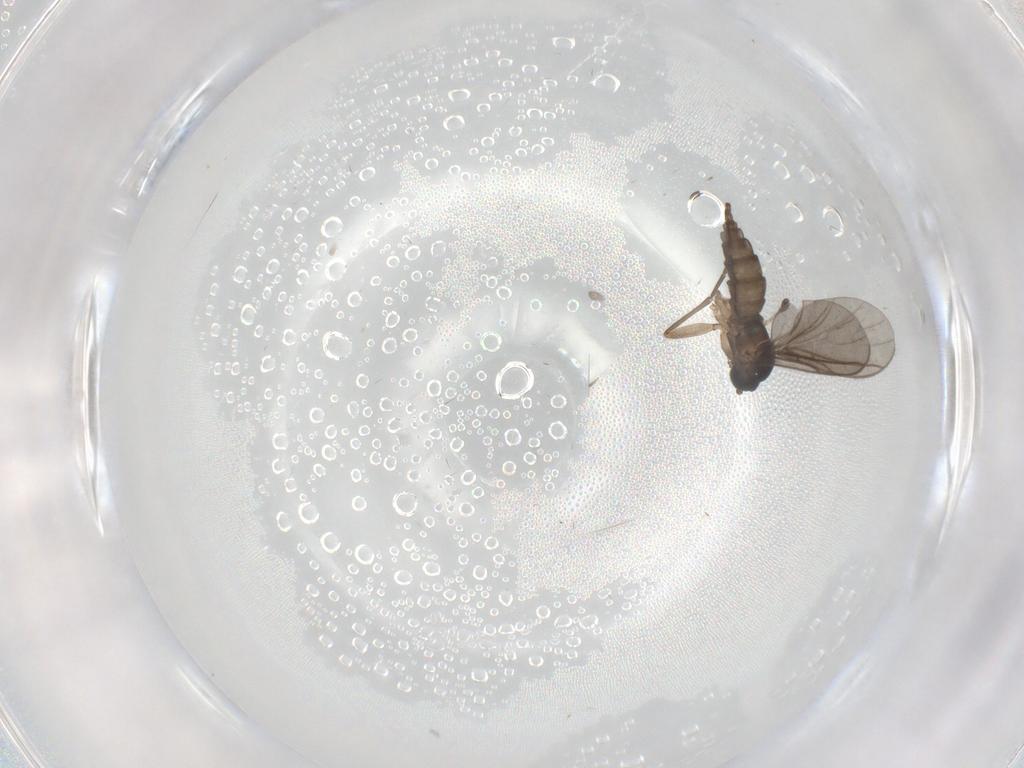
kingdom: Animalia
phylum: Arthropoda
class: Insecta
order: Diptera
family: Sciaridae
